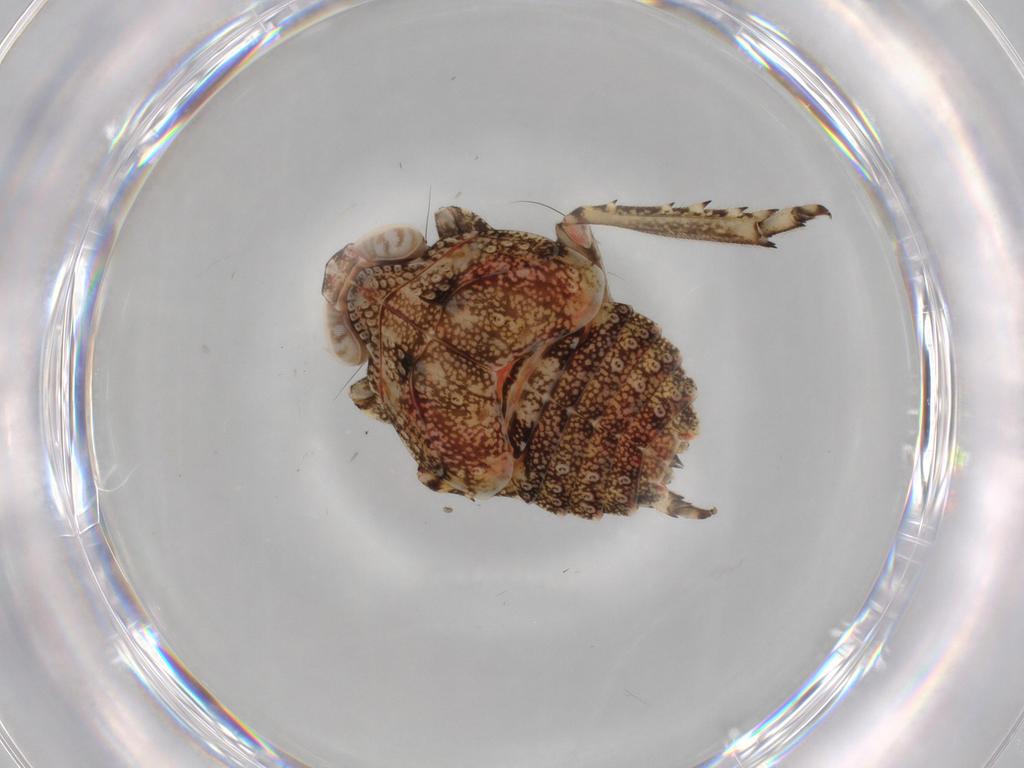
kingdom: Animalia
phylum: Arthropoda
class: Insecta
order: Hemiptera
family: Issidae
